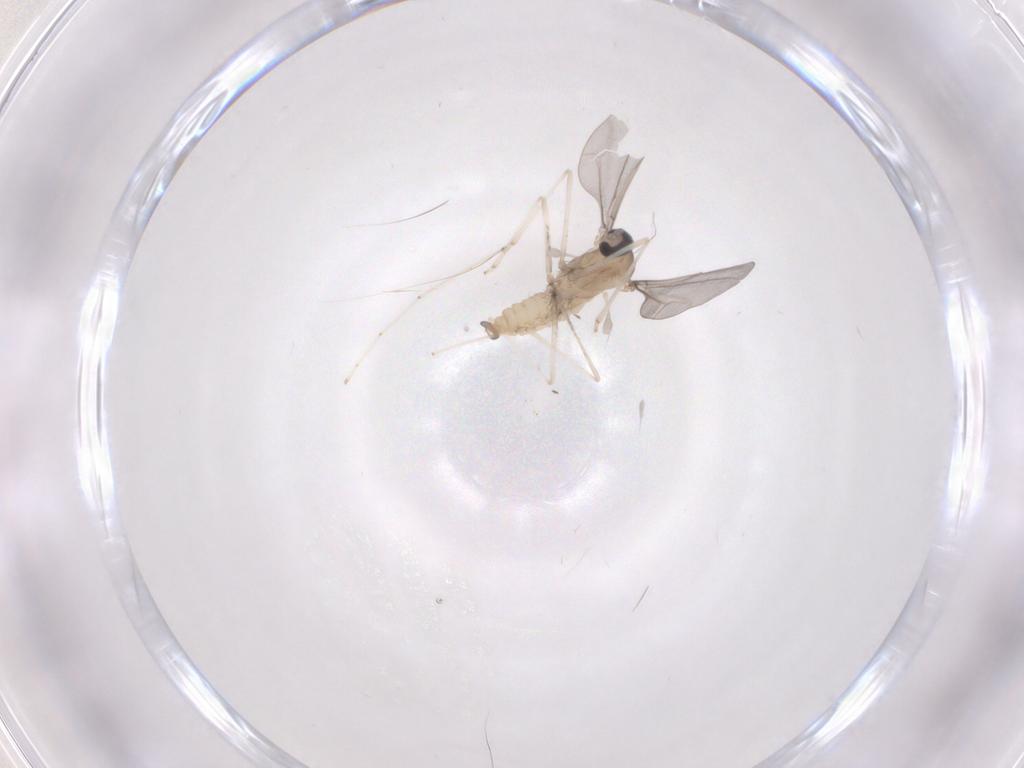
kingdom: Animalia
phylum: Arthropoda
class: Insecta
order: Diptera
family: Cecidomyiidae
